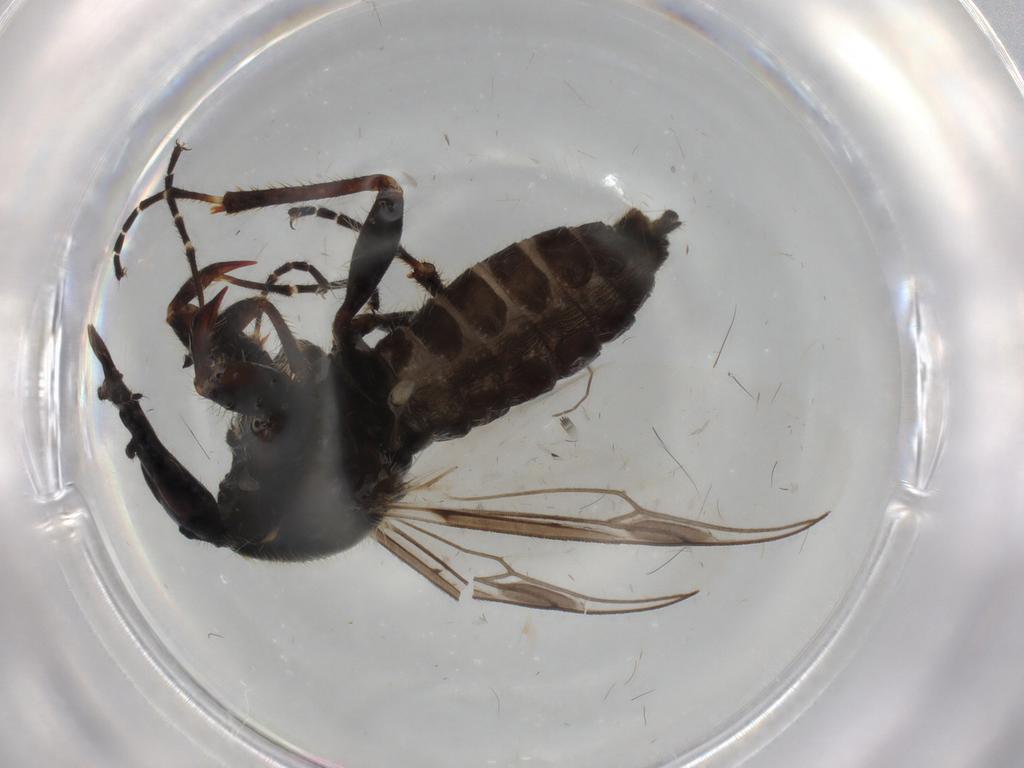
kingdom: Animalia
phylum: Arthropoda
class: Insecta
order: Diptera
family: Bibionidae
